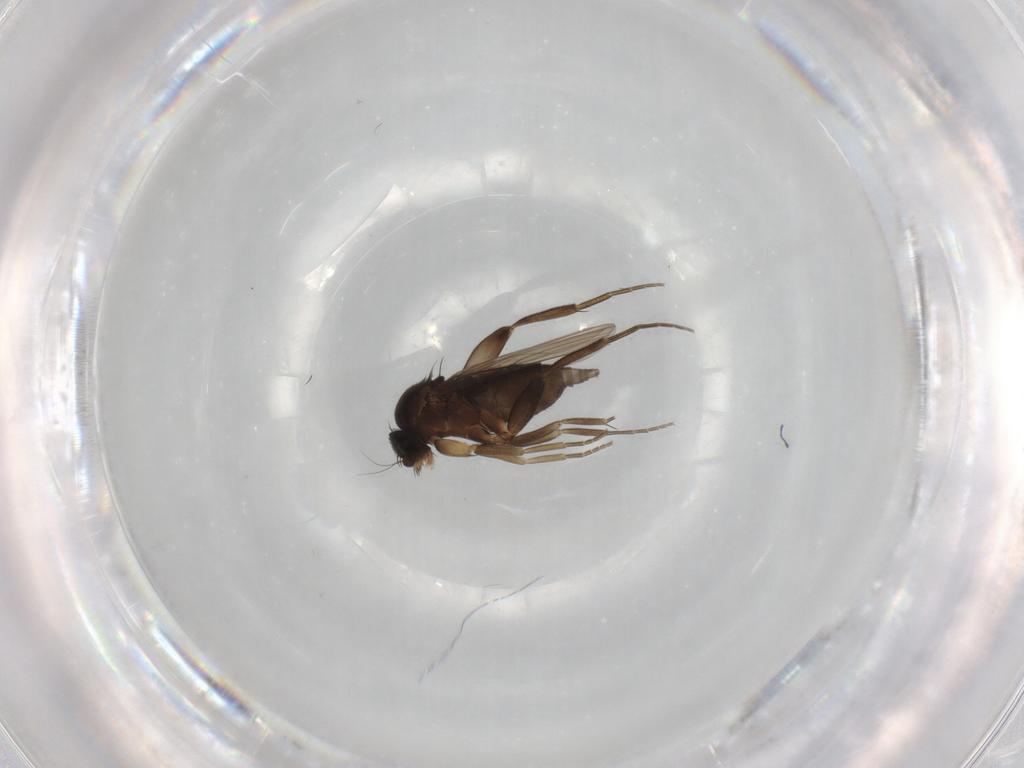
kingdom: Animalia
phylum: Arthropoda
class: Insecta
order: Diptera
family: Phoridae
